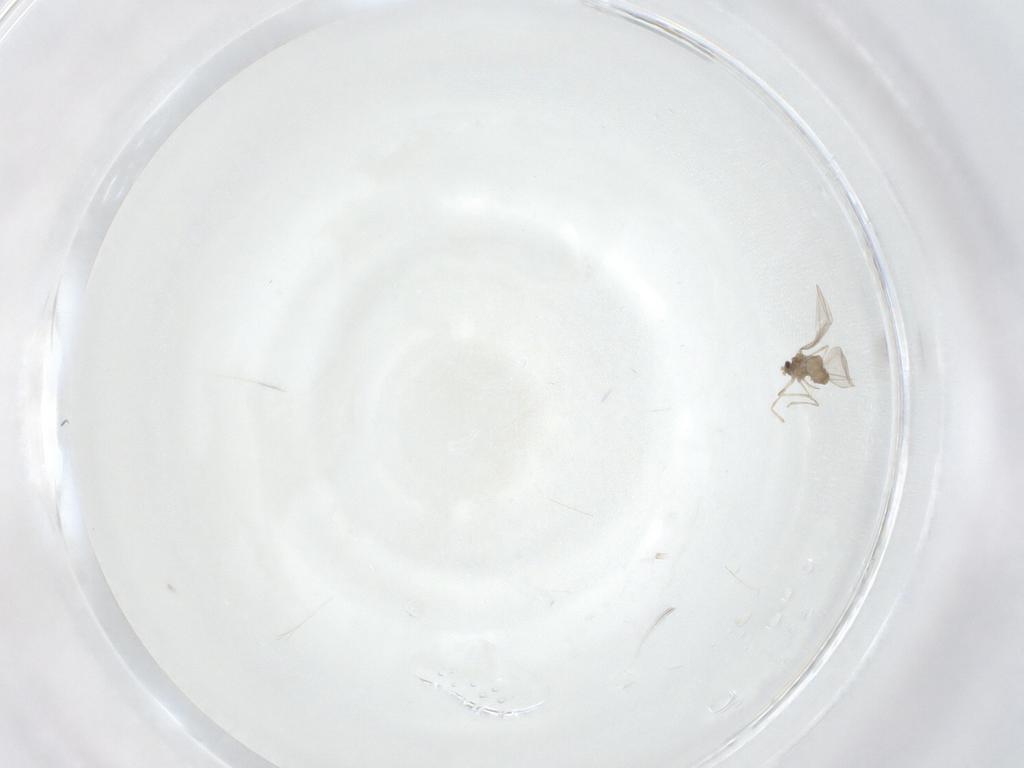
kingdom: Animalia
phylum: Arthropoda
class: Insecta
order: Diptera
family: Cecidomyiidae
